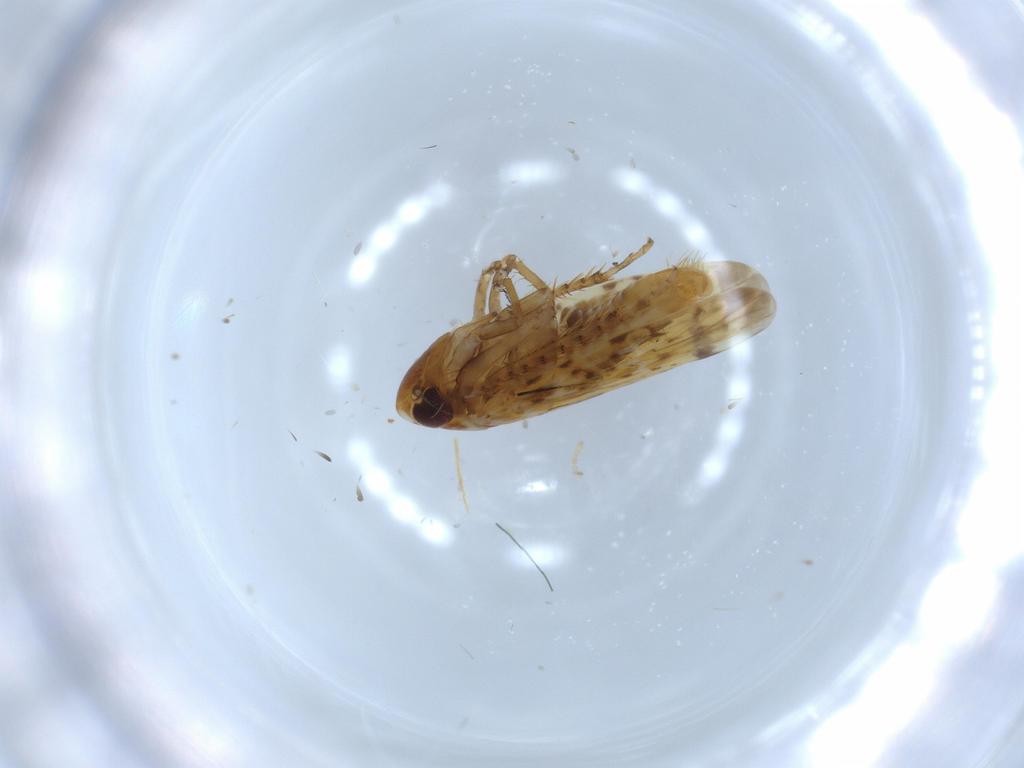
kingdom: Animalia
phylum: Arthropoda
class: Insecta
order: Hemiptera
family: Cicadellidae
